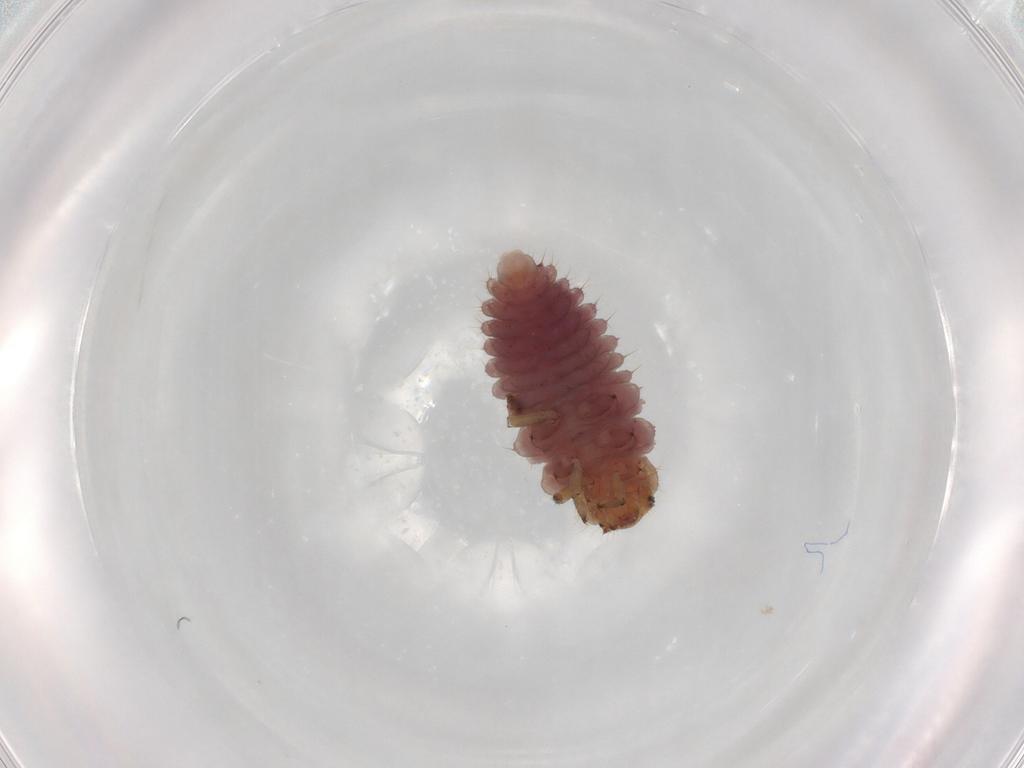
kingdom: Animalia
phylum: Arthropoda
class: Insecta
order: Coleoptera
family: Coccinellidae
